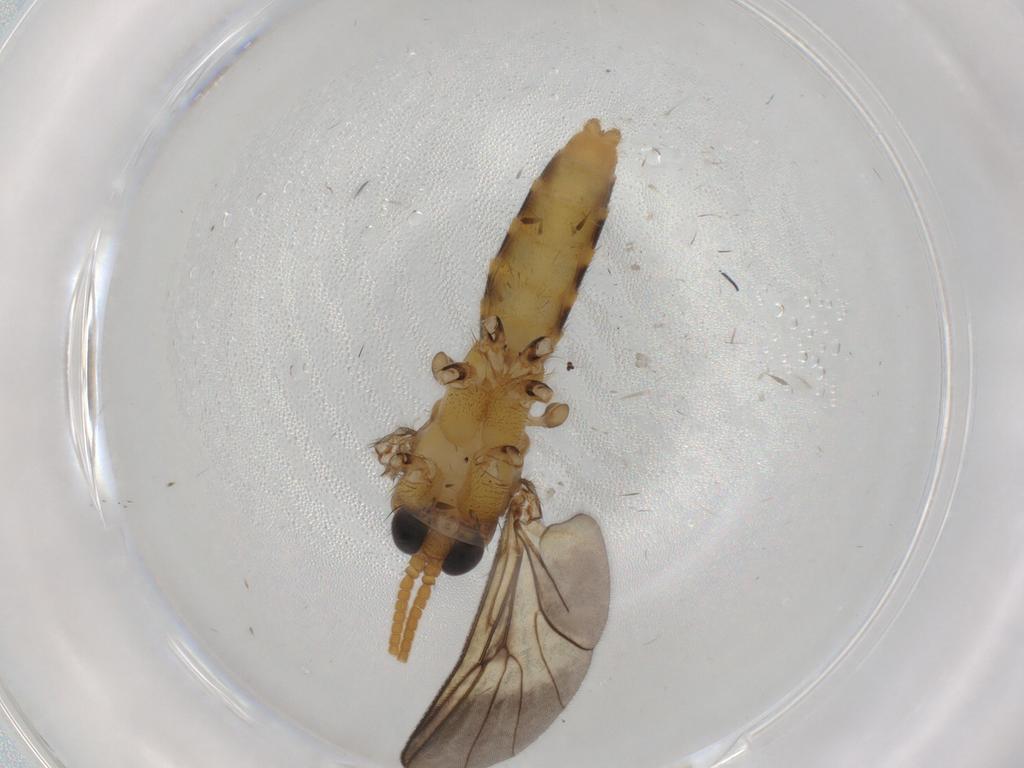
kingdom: Animalia
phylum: Arthropoda
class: Insecta
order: Diptera
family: Phoridae
